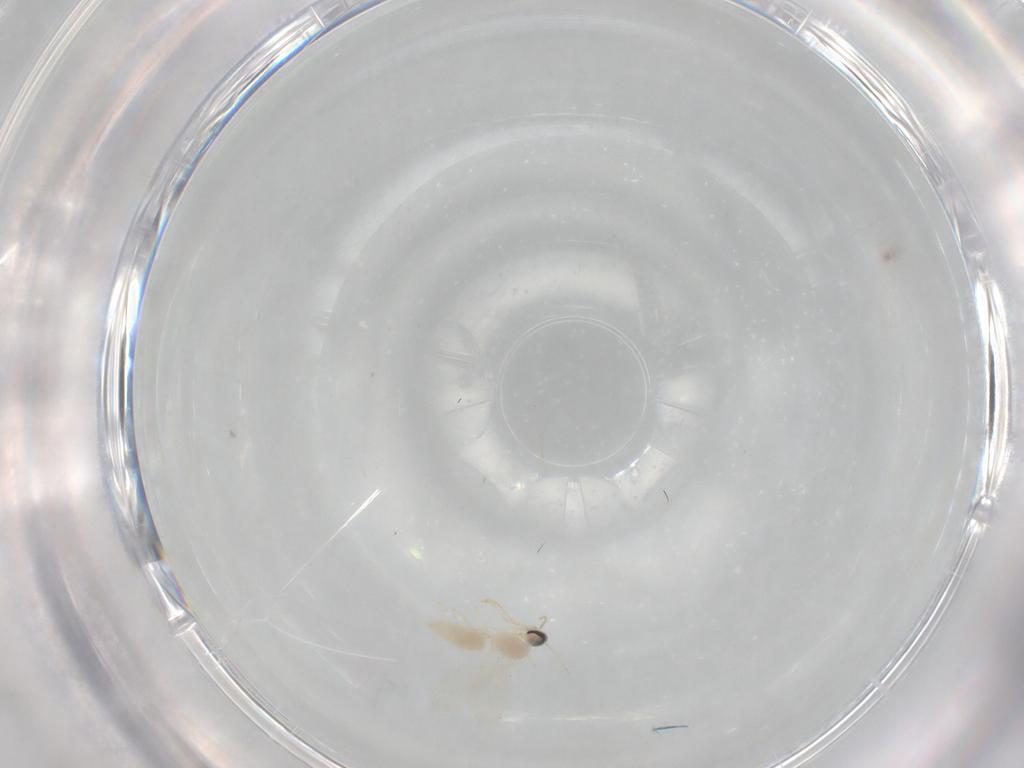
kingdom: Animalia
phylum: Arthropoda
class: Insecta
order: Diptera
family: Cecidomyiidae
